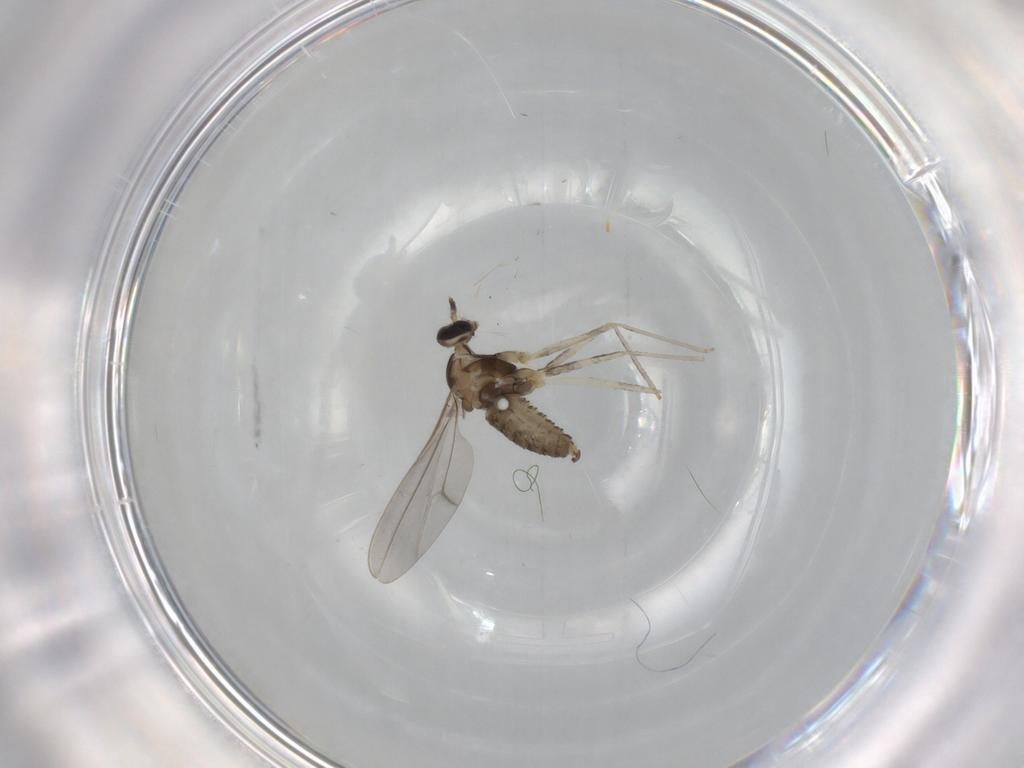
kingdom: Animalia
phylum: Arthropoda
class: Insecta
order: Diptera
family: Cecidomyiidae
